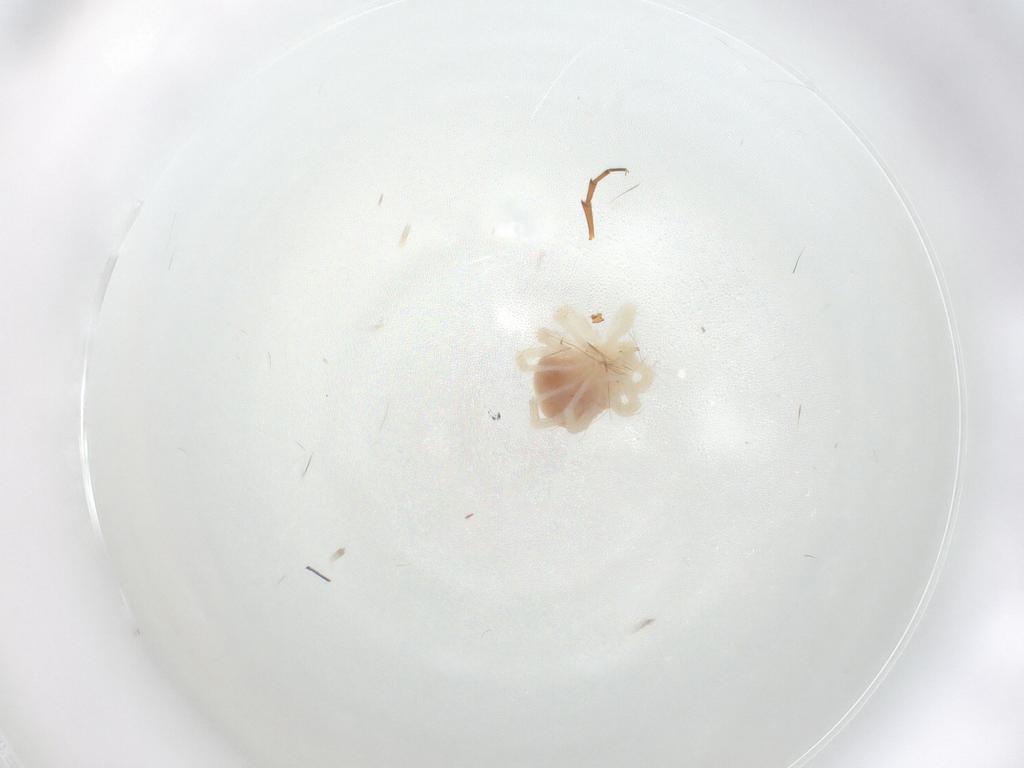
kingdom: Animalia
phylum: Arthropoda
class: Arachnida
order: Trombidiformes
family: Anystidae
